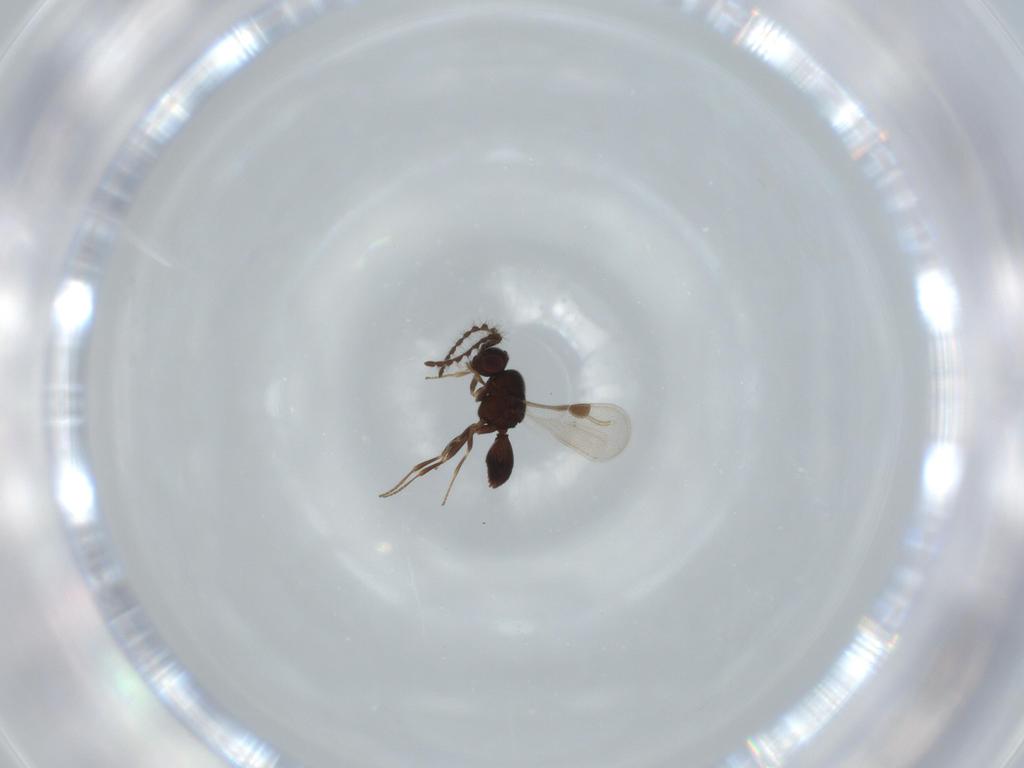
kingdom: Animalia
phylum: Arthropoda
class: Insecta
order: Hymenoptera
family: Megaspilidae
